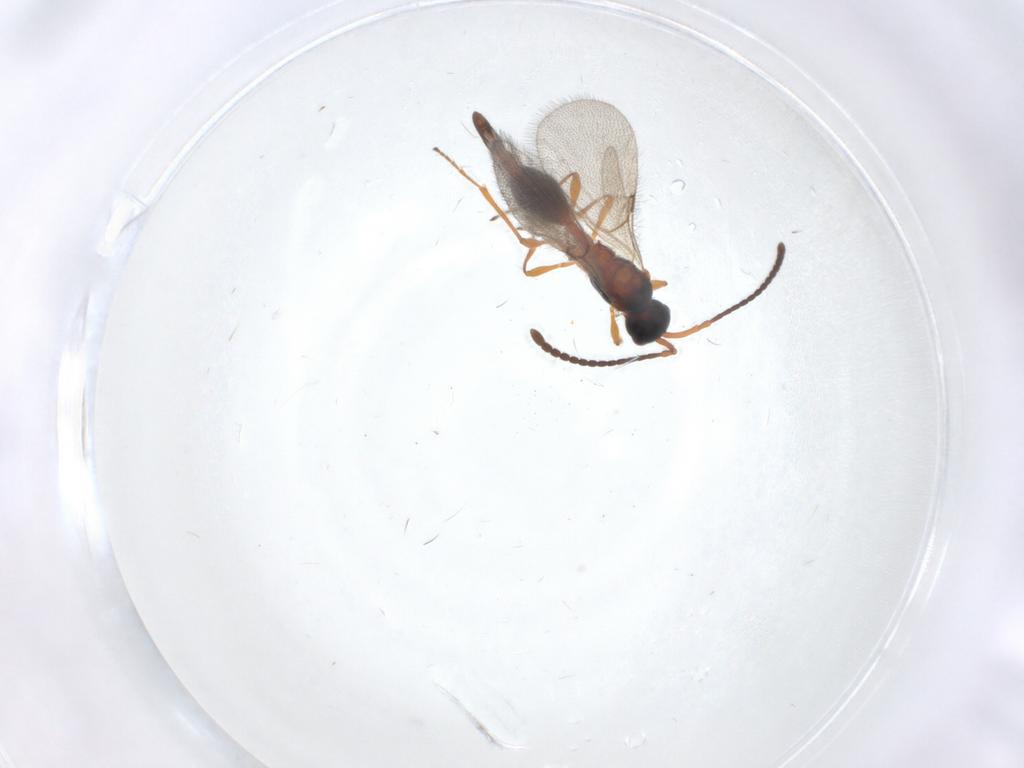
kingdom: Animalia
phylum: Arthropoda
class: Insecta
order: Hymenoptera
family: Diapriidae
